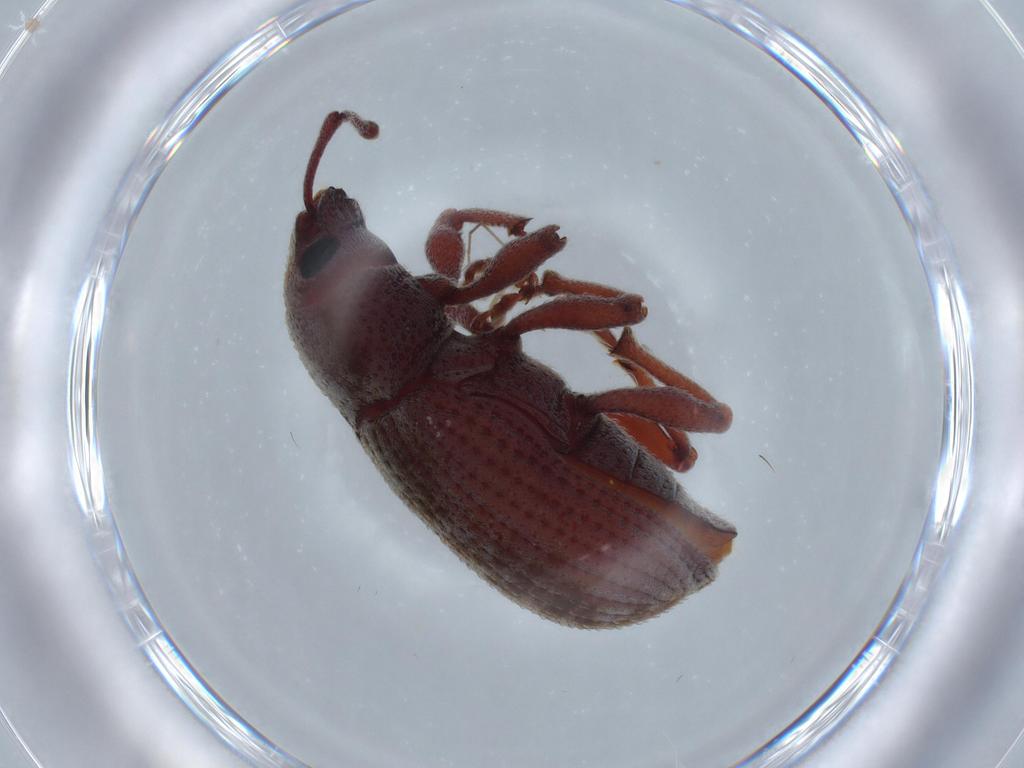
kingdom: Animalia
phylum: Arthropoda
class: Insecta
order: Coleoptera
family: Curculionidae
